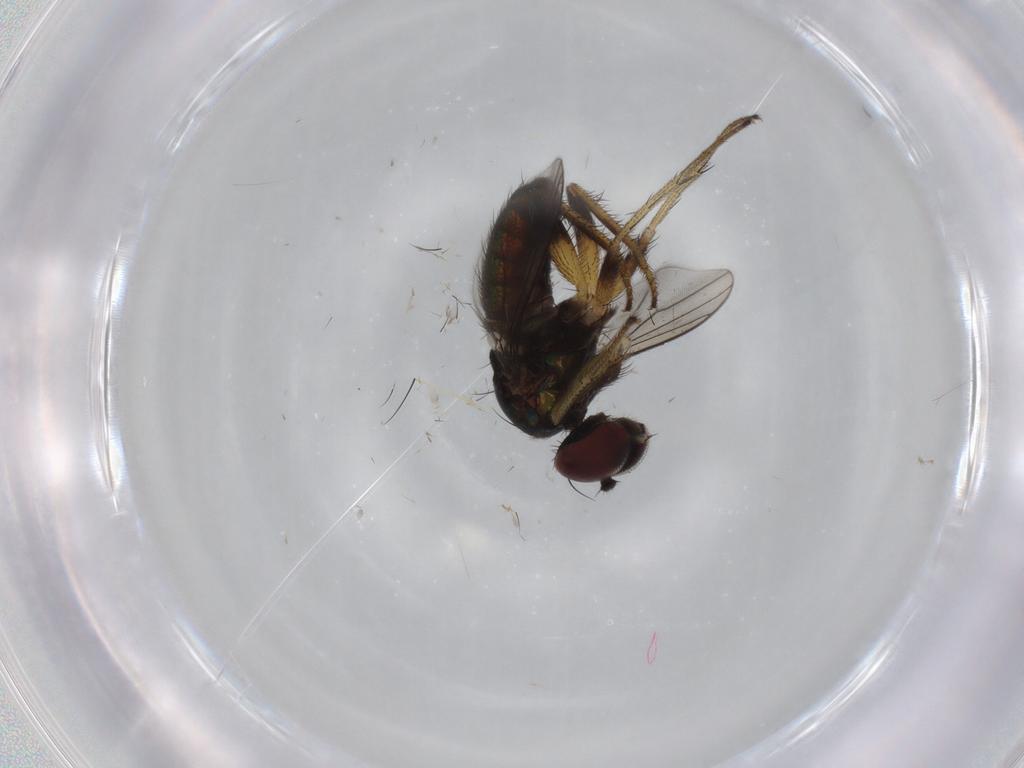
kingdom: Animalia
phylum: Arthropoda
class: Insecta
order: Diptera
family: Dolichopodidae
